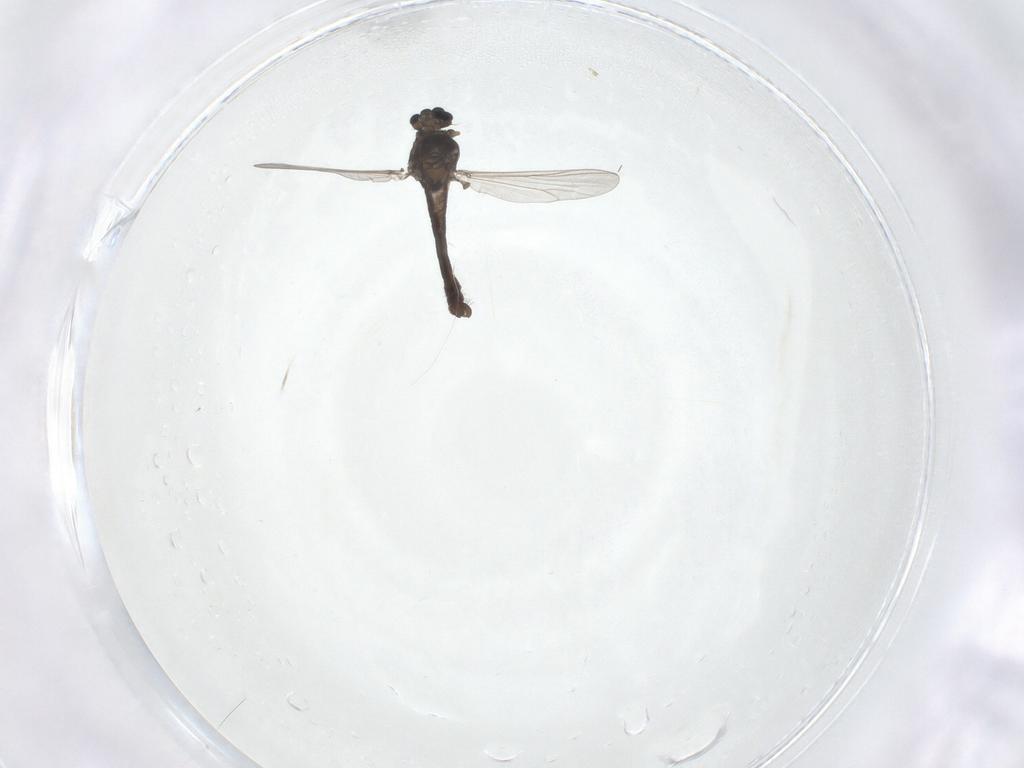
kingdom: Animalia
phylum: Arthropoda
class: Insecta
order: Diptera
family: Chironomidae
